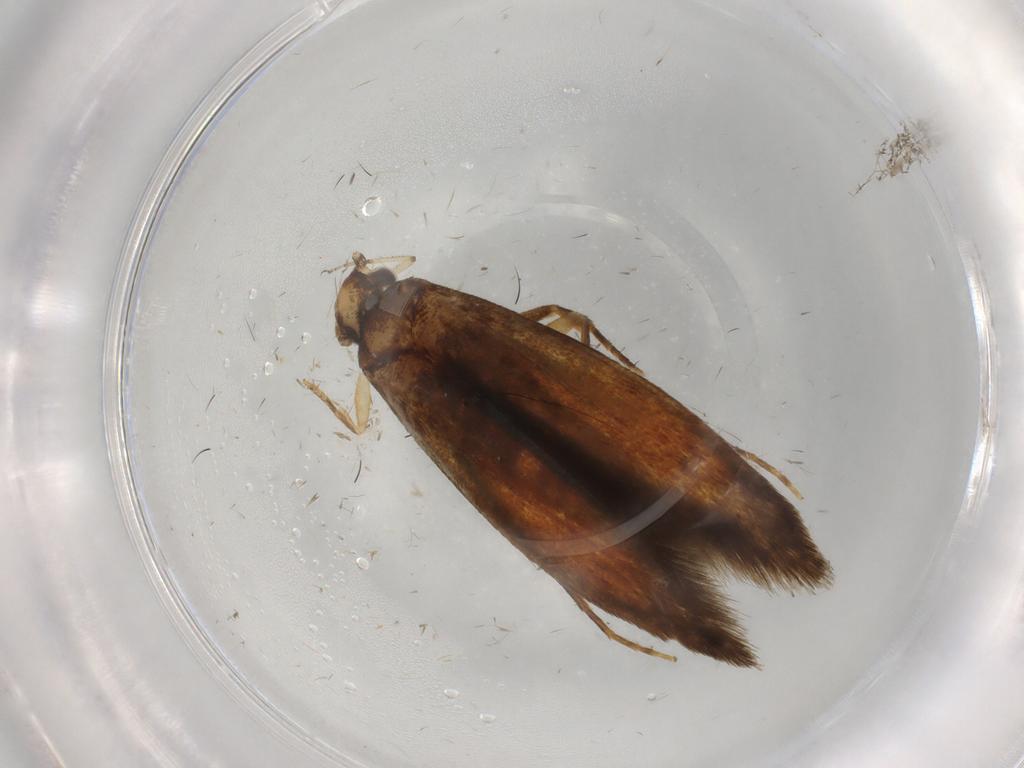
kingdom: Animalia
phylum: Arthropoda
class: Insecta
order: Lepidoptera
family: Tineidae
